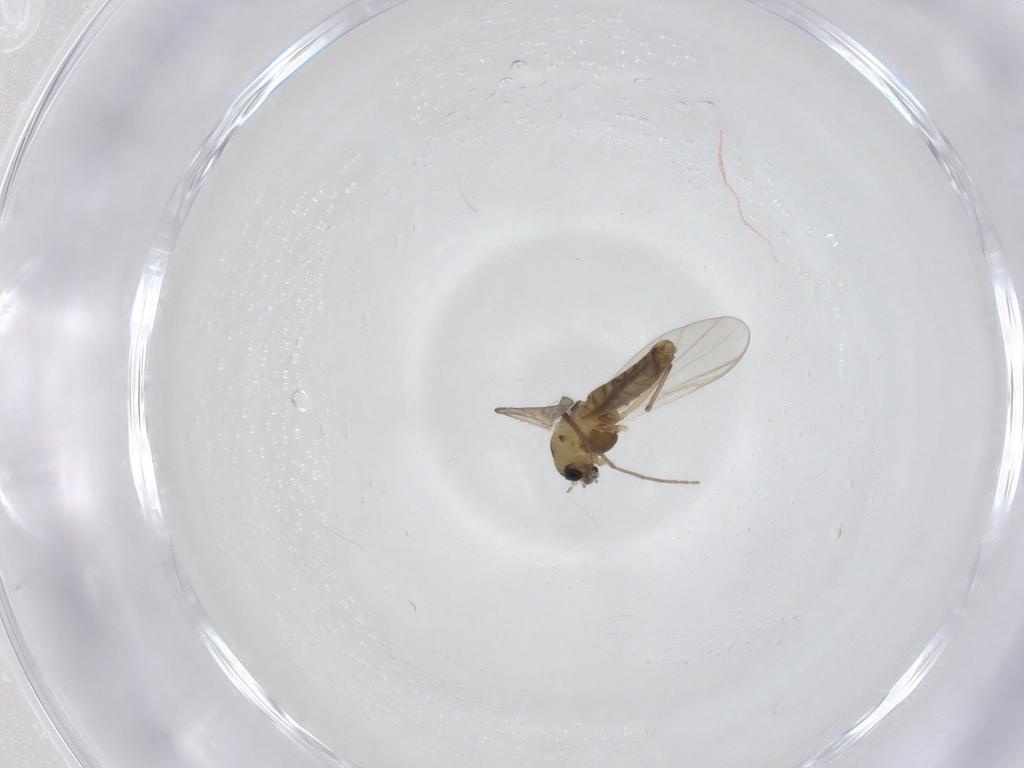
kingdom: Animalia
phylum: Arthropoda
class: Insecta
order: Diptera
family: Chironomidae
